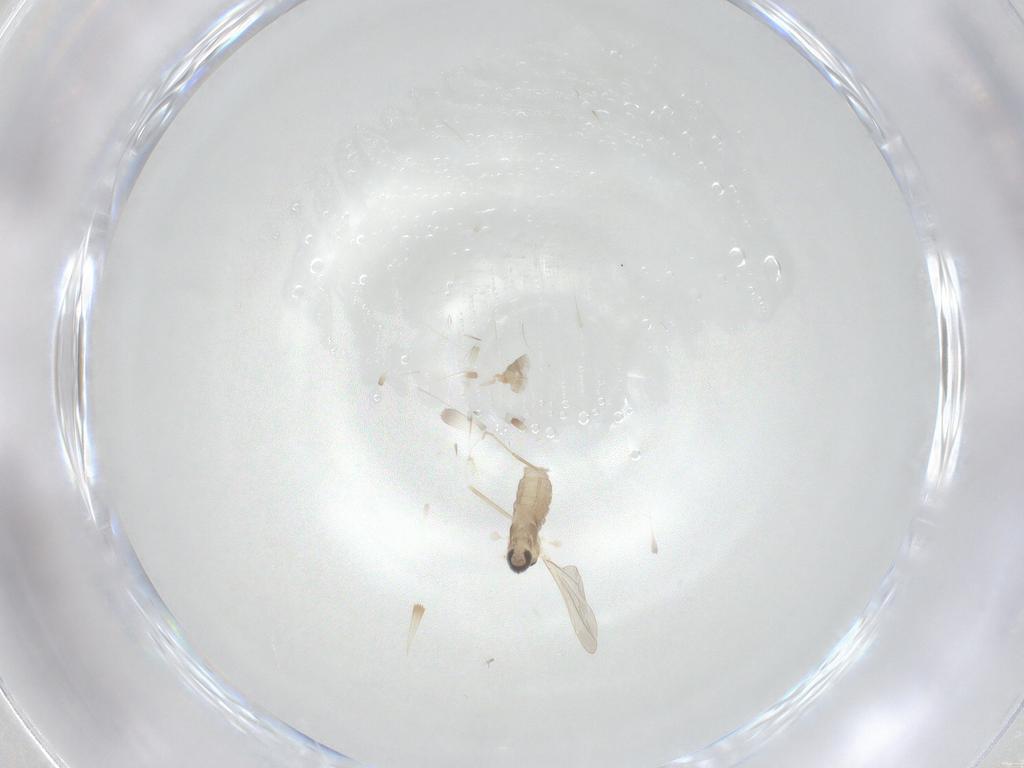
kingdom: Animalia
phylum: Arthropoda
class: Insecta
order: Diptera
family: Cecidomyiidae
